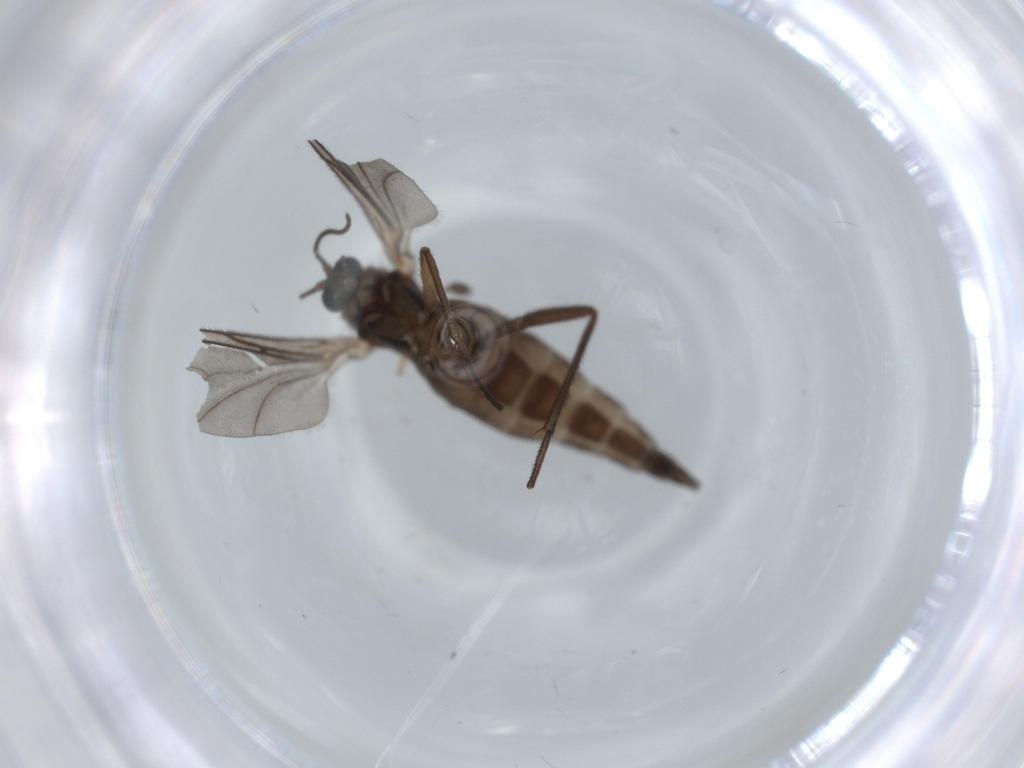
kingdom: Animalia
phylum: Arthropoda
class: Insecta
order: Diptera
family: Sciaridae
